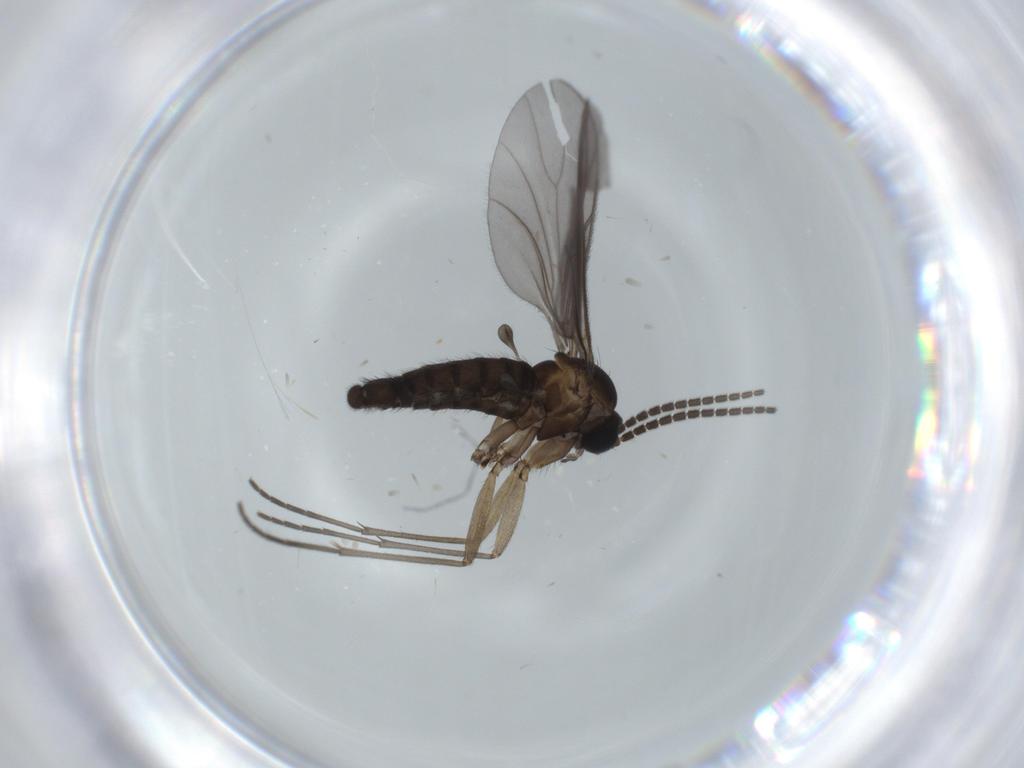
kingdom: Animalia
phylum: Arthropoda
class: Insecta
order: Diptera
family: Sciaridae
